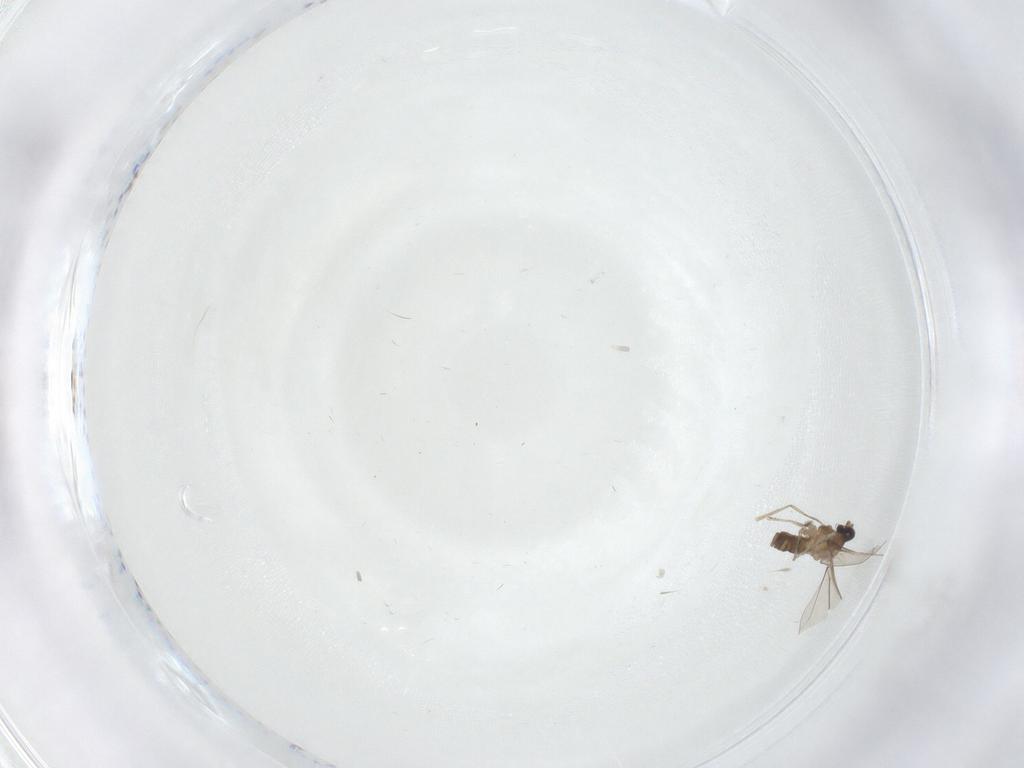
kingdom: Animalia
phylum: Arthropoda
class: Insecta
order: Diptera
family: Cecidomyiidae
